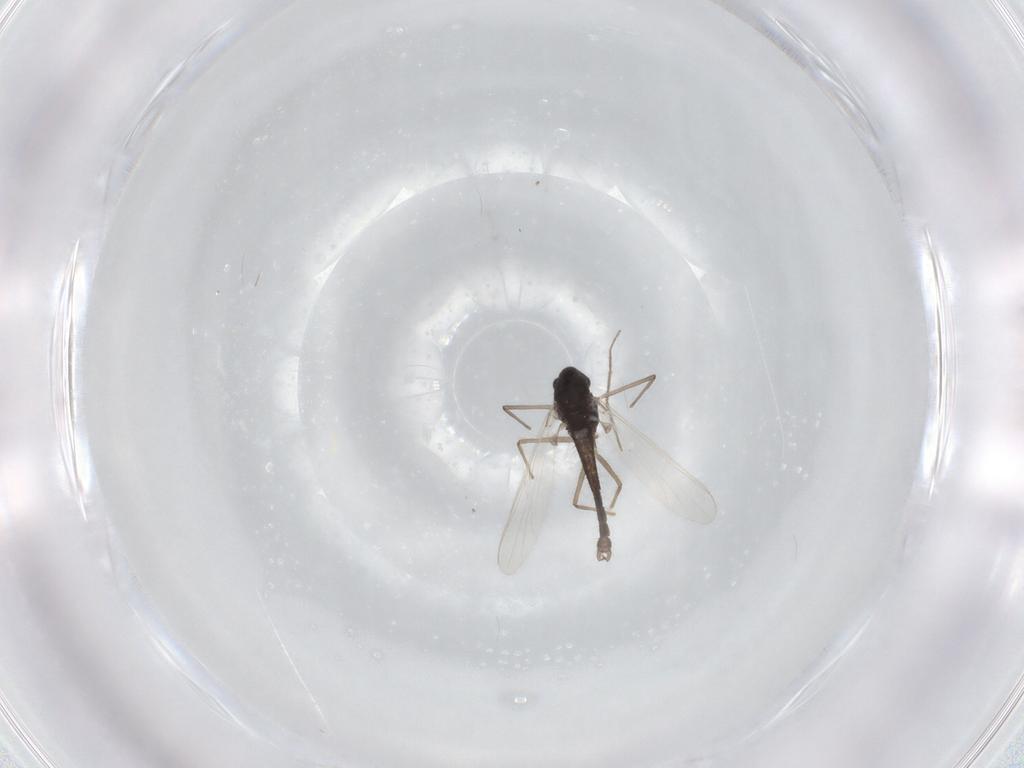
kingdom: Animalia
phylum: Arthropoda
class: Insecta
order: Diptera
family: Chironomidae
